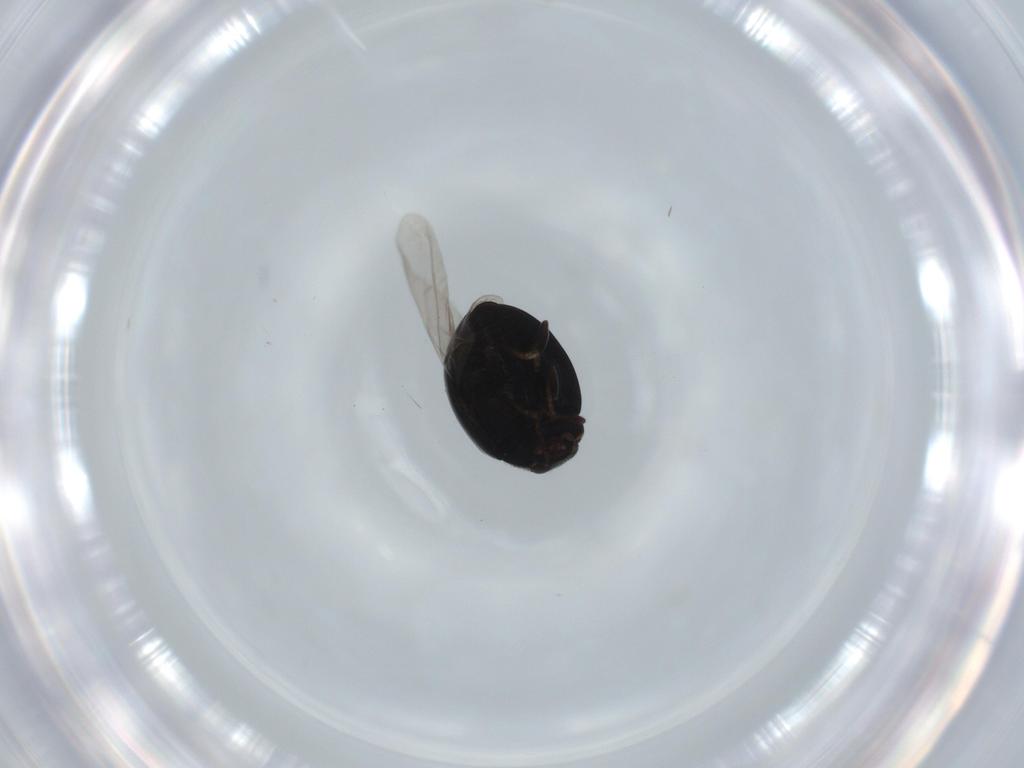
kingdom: Animalia
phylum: Arthropoda
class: Insecta
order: Coleoptera
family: Coccinellidae
